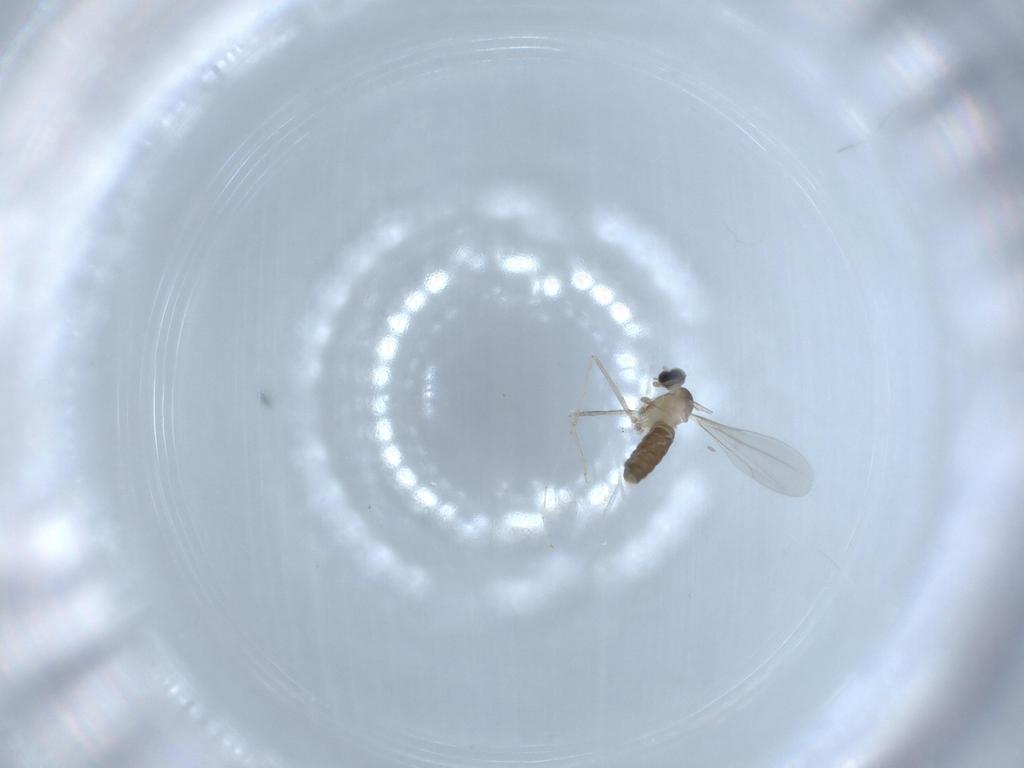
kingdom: Animalia
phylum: Arthropoda
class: Insecta
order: Diptera
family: Cecidomyiidae
